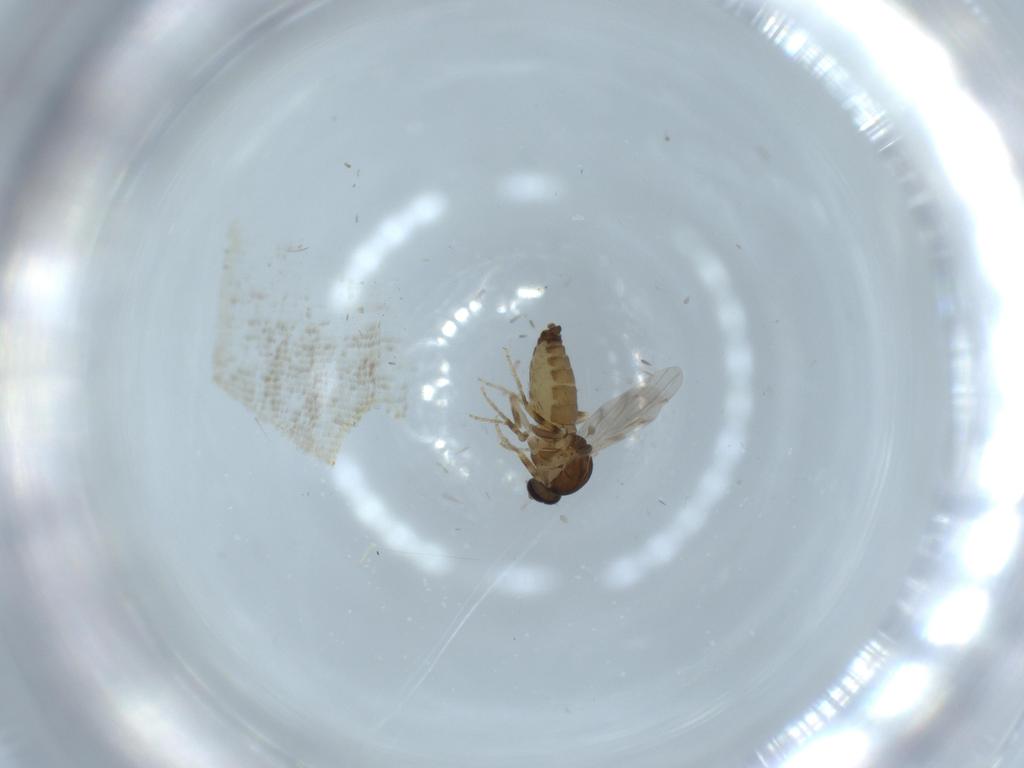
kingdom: Animalia
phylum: Arthropoda
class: Insecta
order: Diptera
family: Ceratopogonidae
